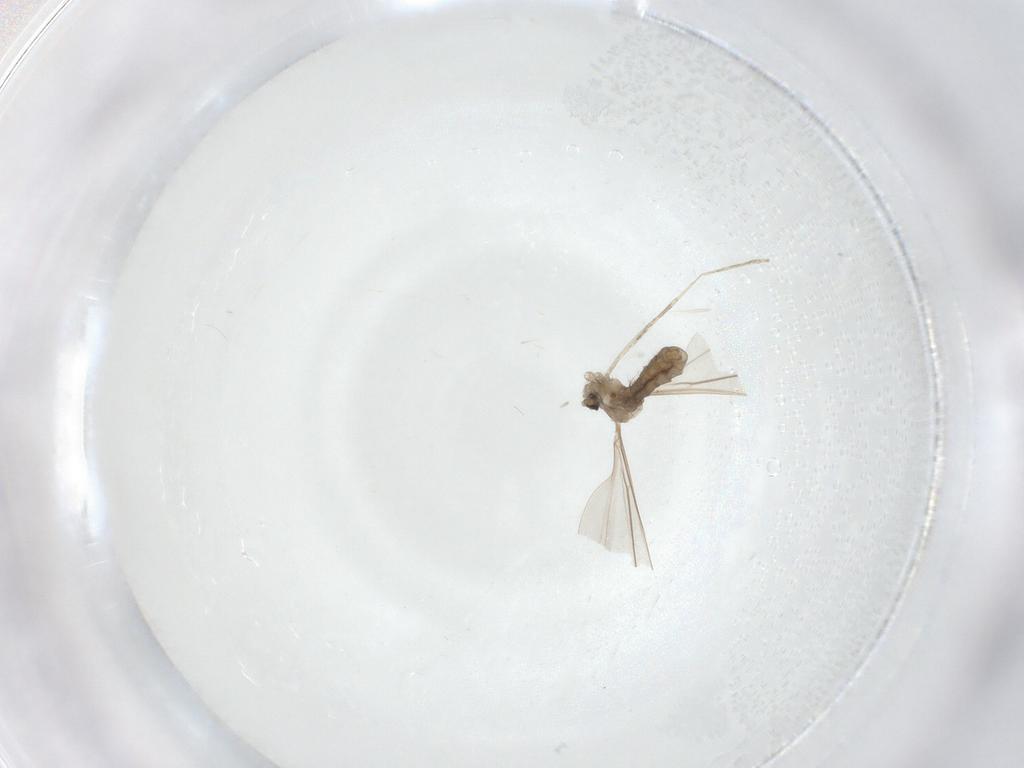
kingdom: Animalia
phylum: Arthropoda
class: Insecta
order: Diptera
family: Cecidomyiidae
